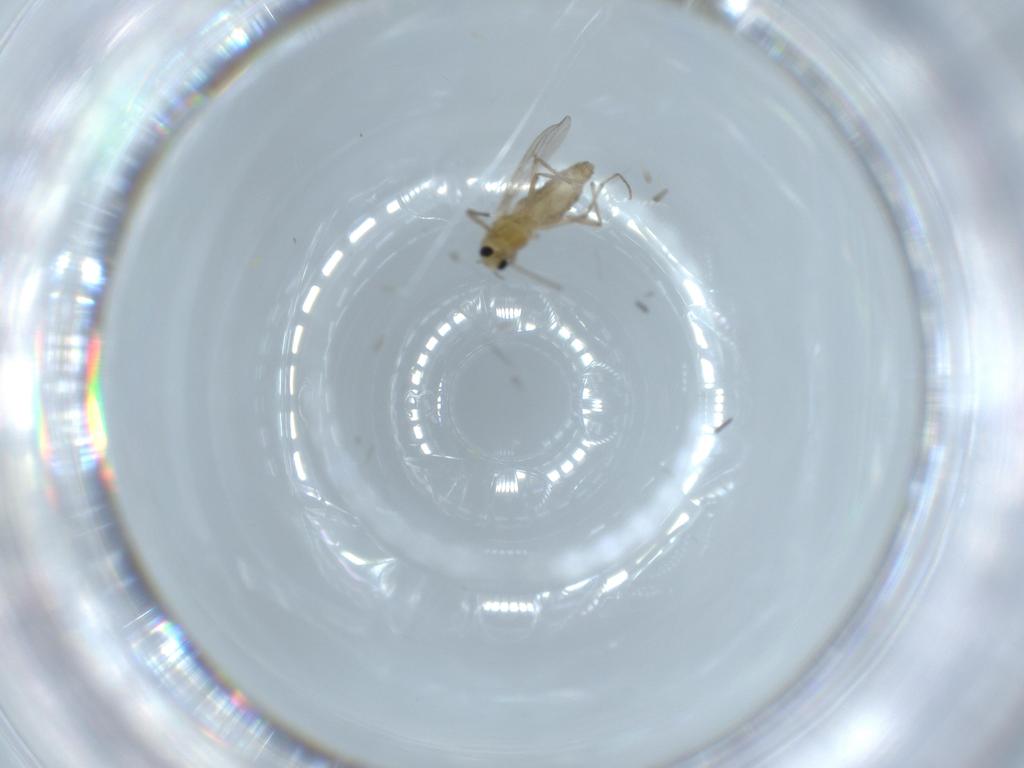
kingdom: Animalia
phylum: Arthropoda
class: Insecta
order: Diptera
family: Chironomidae
